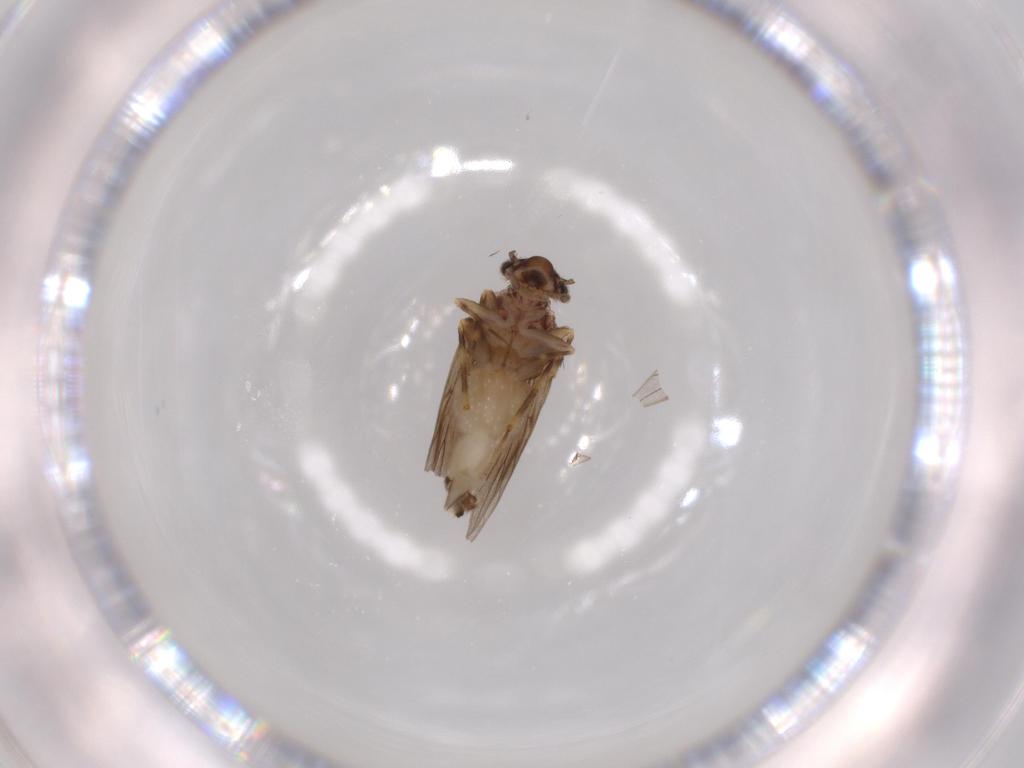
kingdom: Animalia
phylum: Arthropoda
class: Insecta
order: Psocodea
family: Lepidopsocidae
